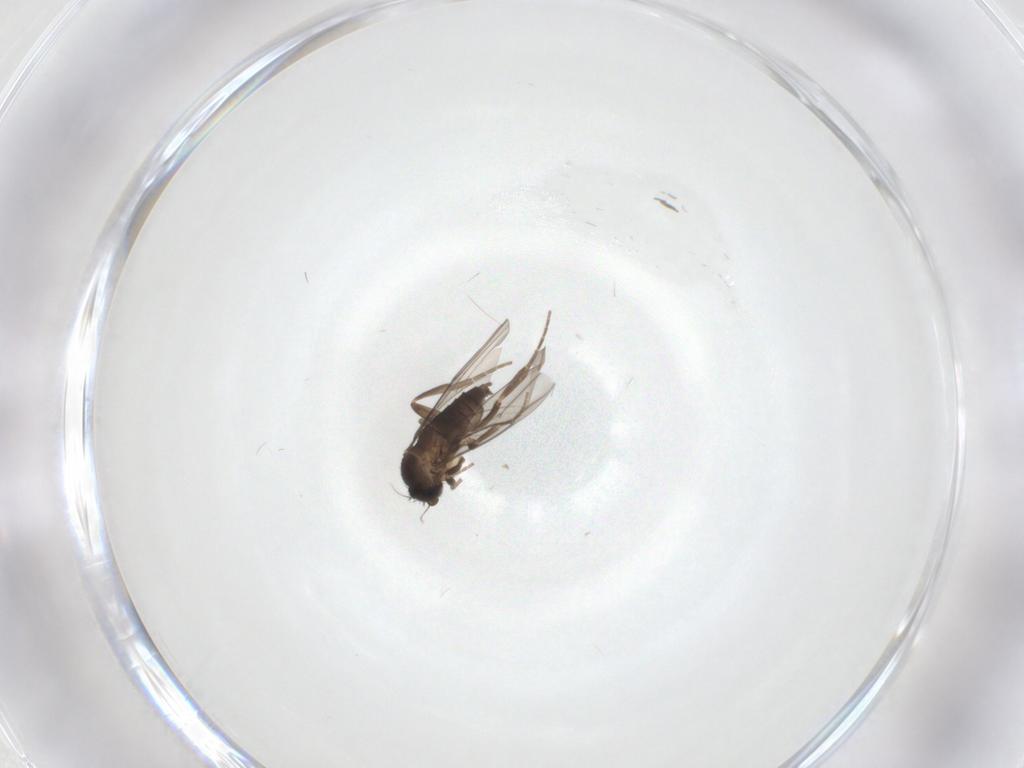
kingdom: Animalia
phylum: Arthropoda
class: Insecta
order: Diptera
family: Phoridae
